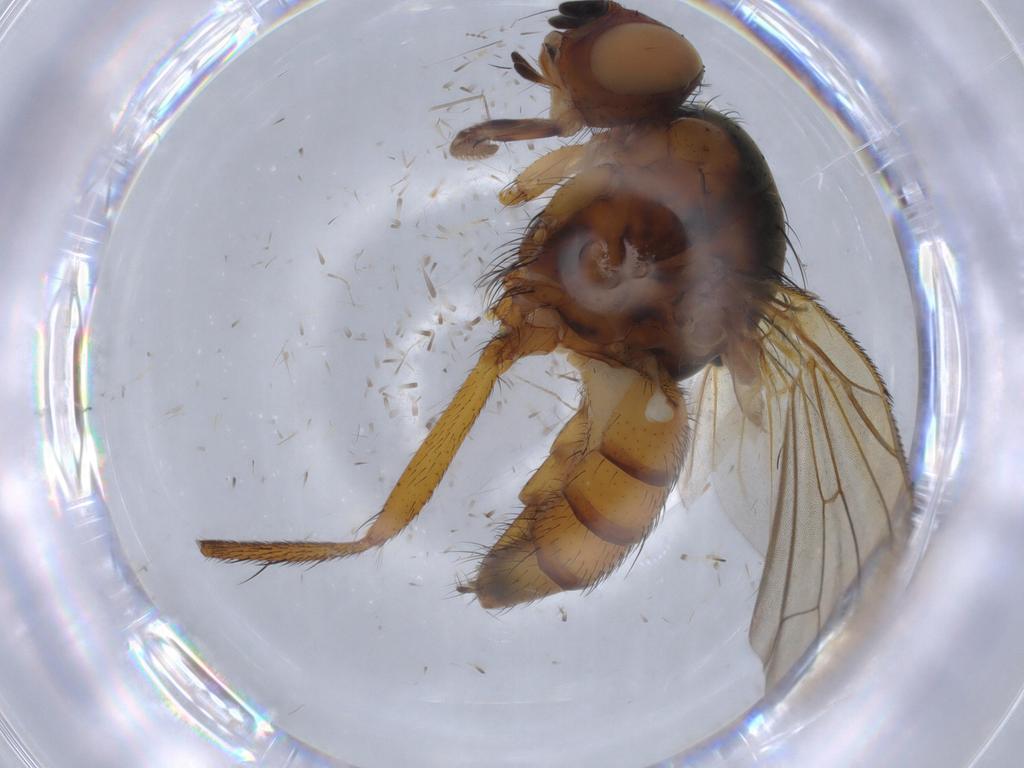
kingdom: Animalia
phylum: Arthropoda
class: Insecta
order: Diptera
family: Anthomyiidae
